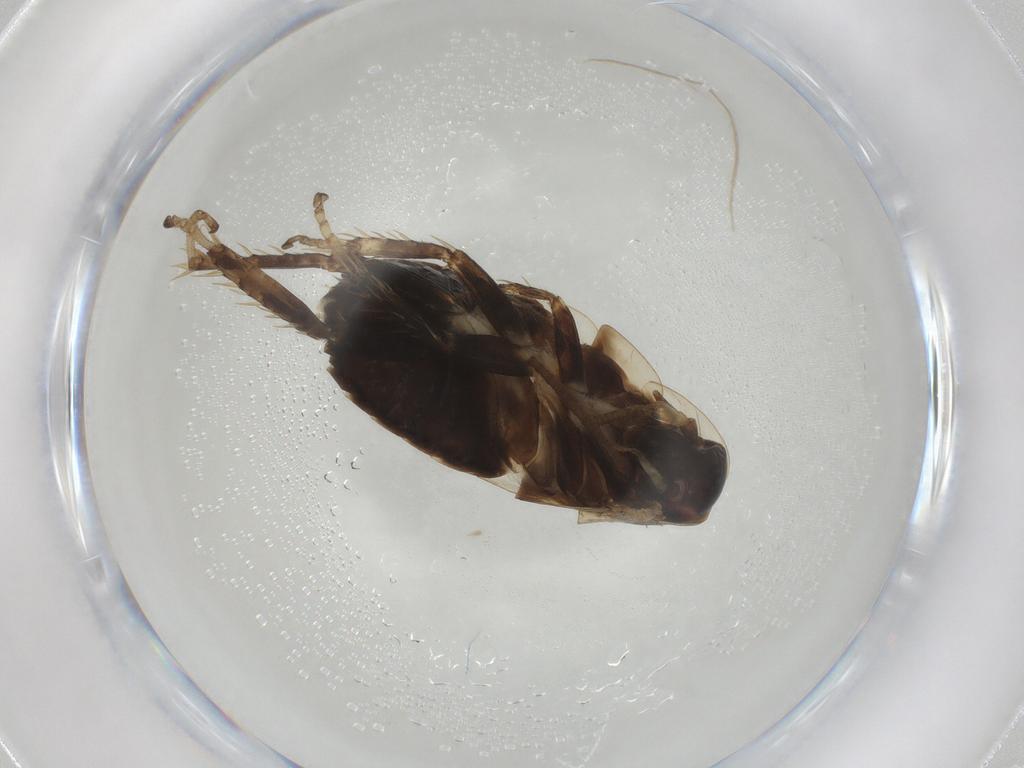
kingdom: Animalia
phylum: Arthropoda
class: Insecta
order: Blattodea
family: Ectobiidae
